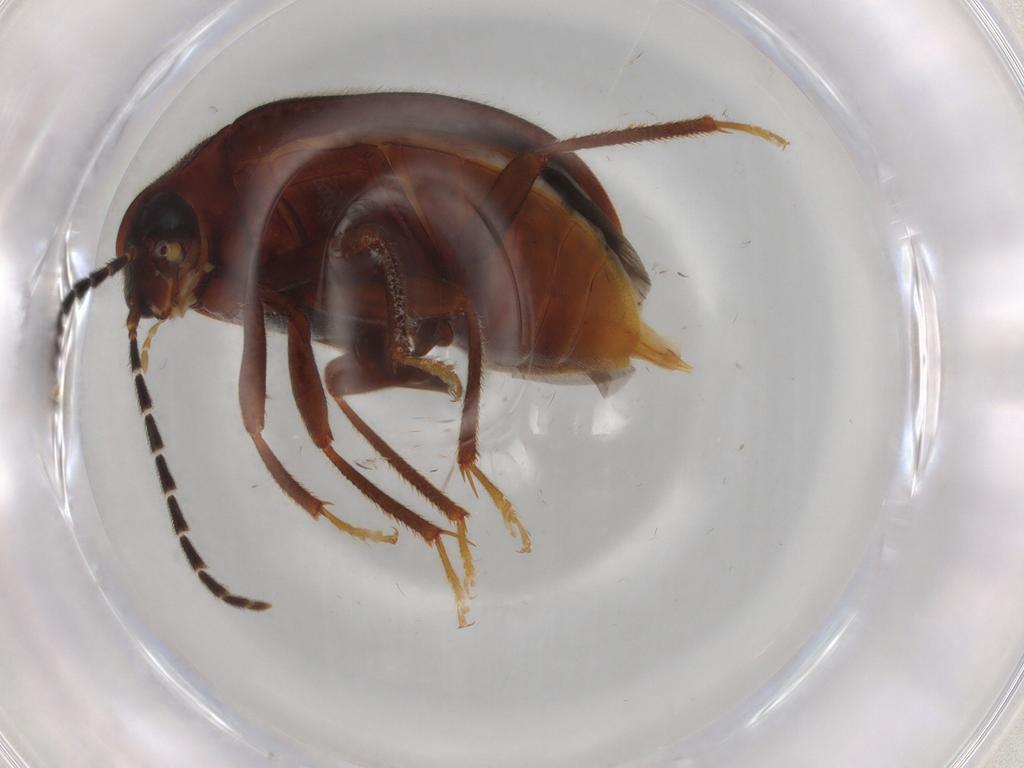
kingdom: Animalia
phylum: Arthropoda
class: Insecta
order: Coleoptera
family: Ptilodactylidae
